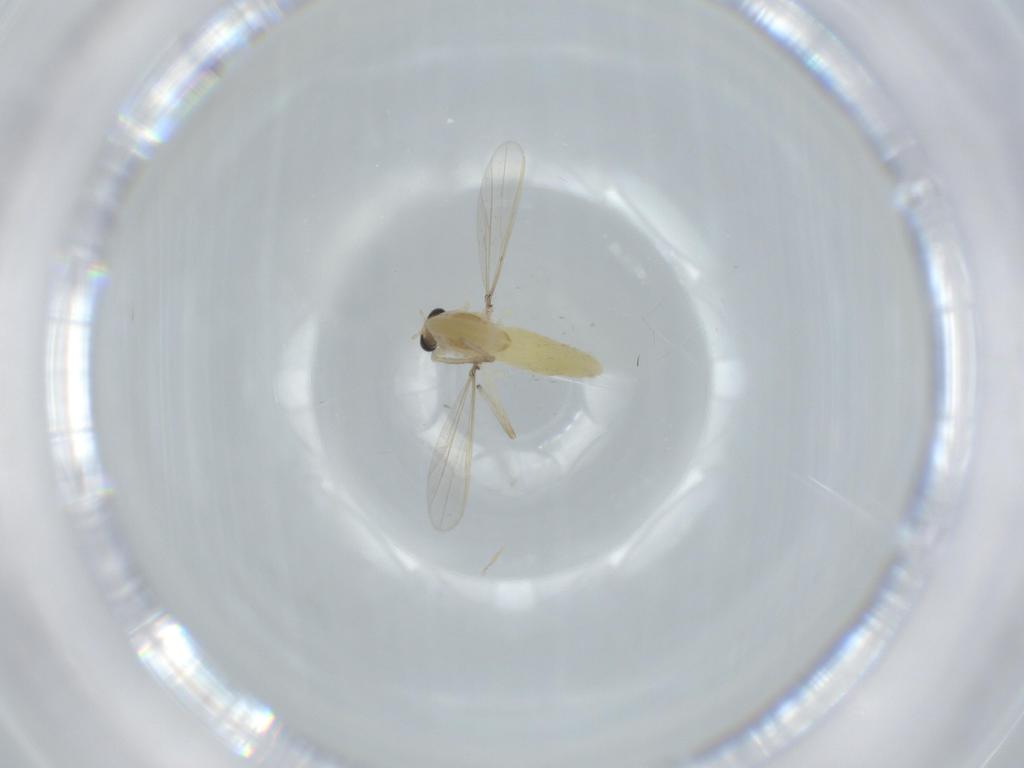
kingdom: Animalia
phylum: Arthropoda
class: Insecta
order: Diptera
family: Chironomidae
